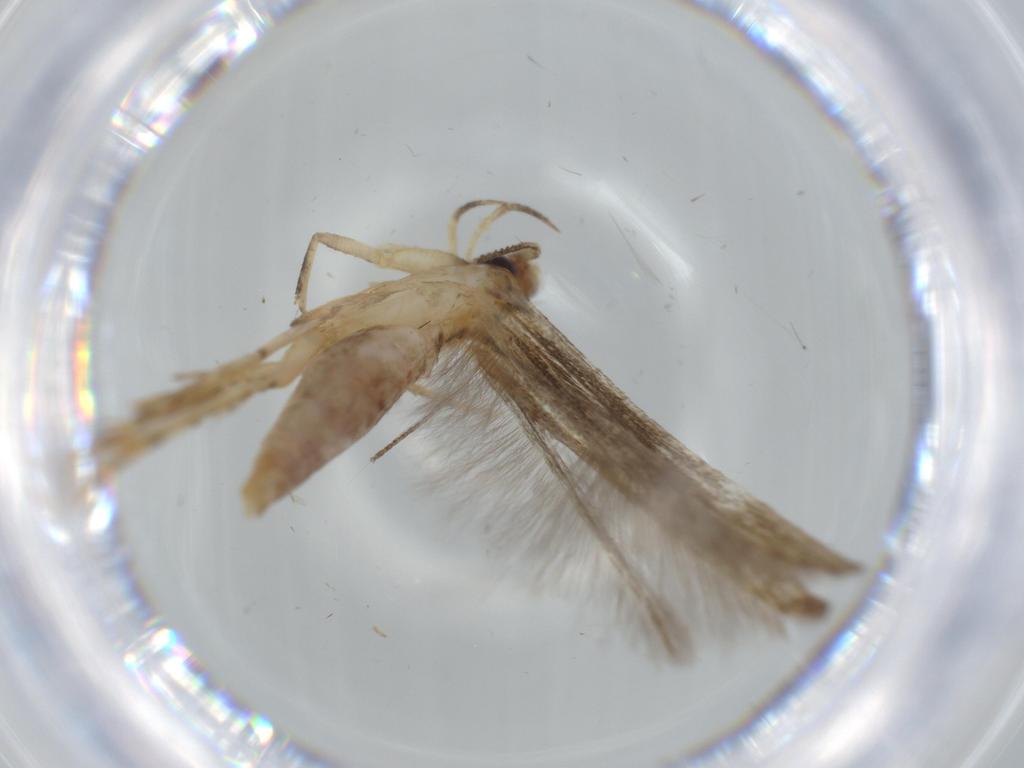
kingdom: Animalia
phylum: Arthropoda
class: Insecta
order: Lepidoptera
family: Heliodinidae
